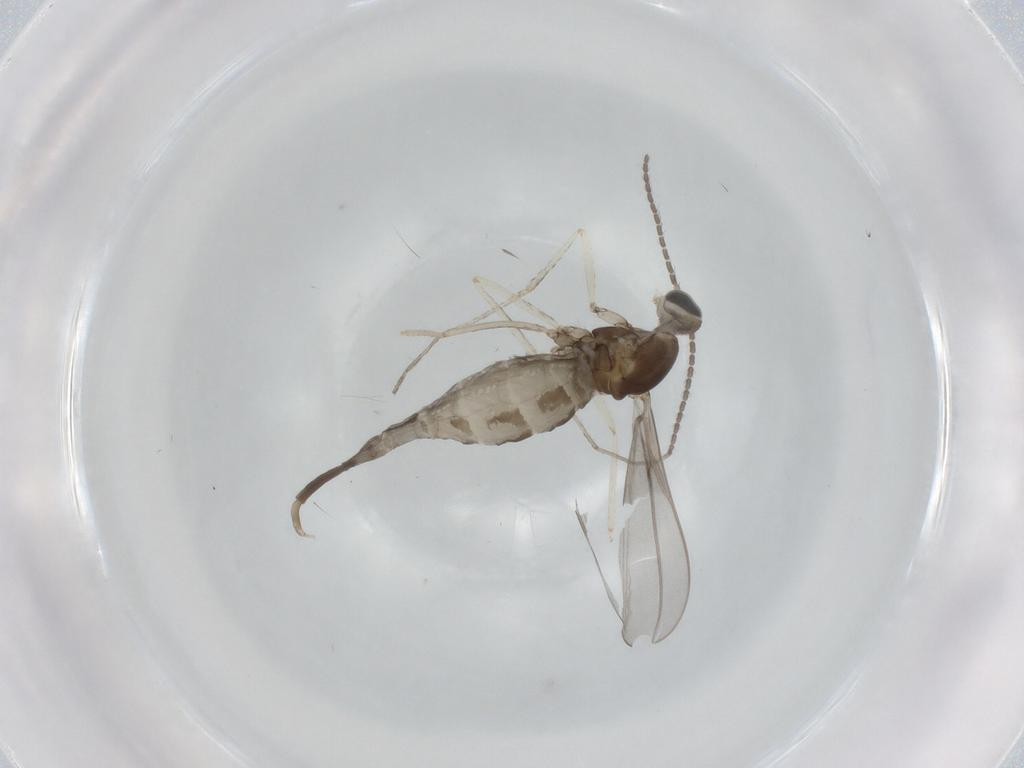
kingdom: Animalia
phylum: Arthropoda
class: Insecta
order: Diptera
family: Cecidomyiidae
